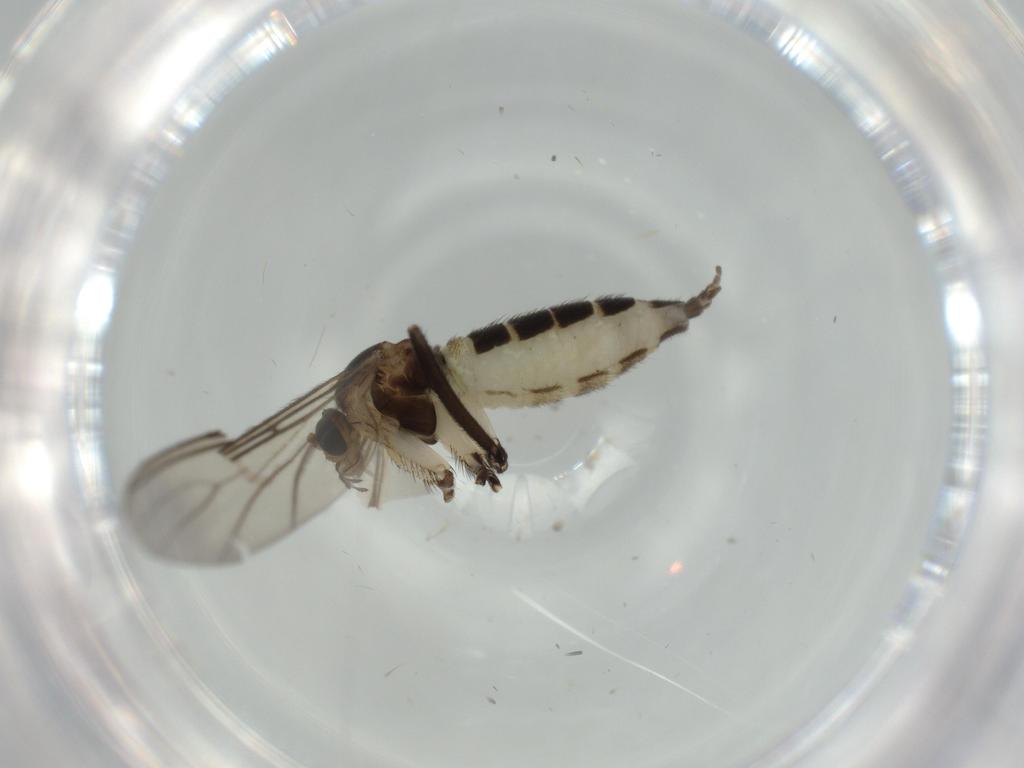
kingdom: Animalia
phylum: Arthropoda
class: Insecta
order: Diptera
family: Sciaridae
